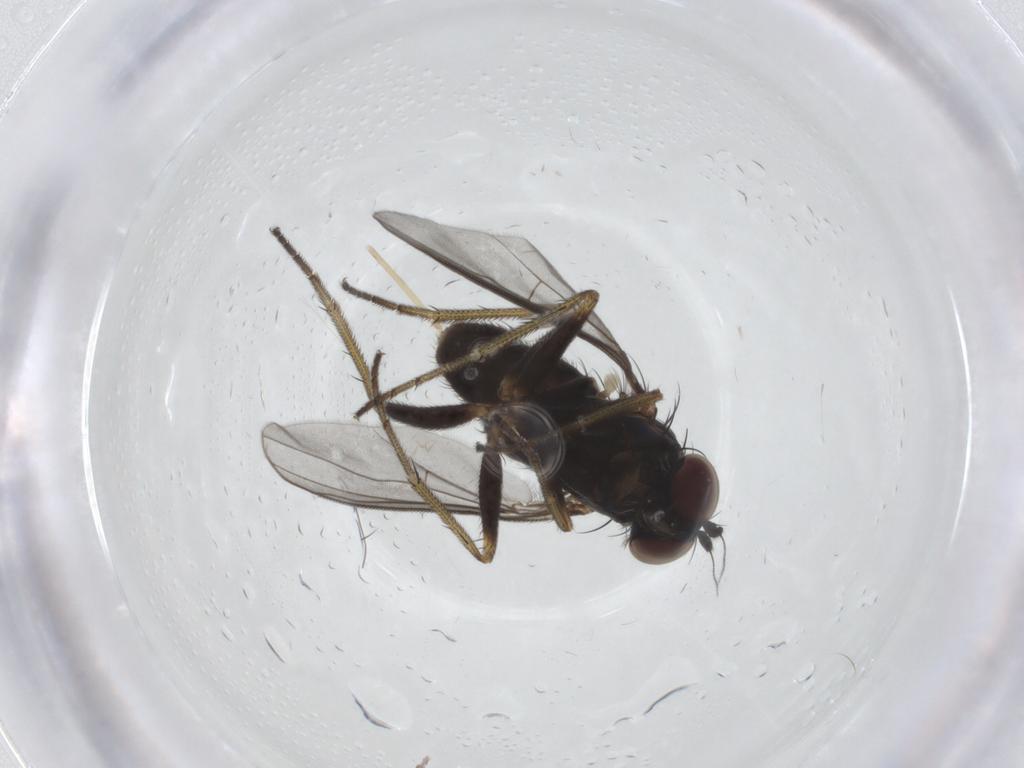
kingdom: Animalia
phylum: Arthropoda
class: Insecta
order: Diptera
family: Cecidomyiidae
